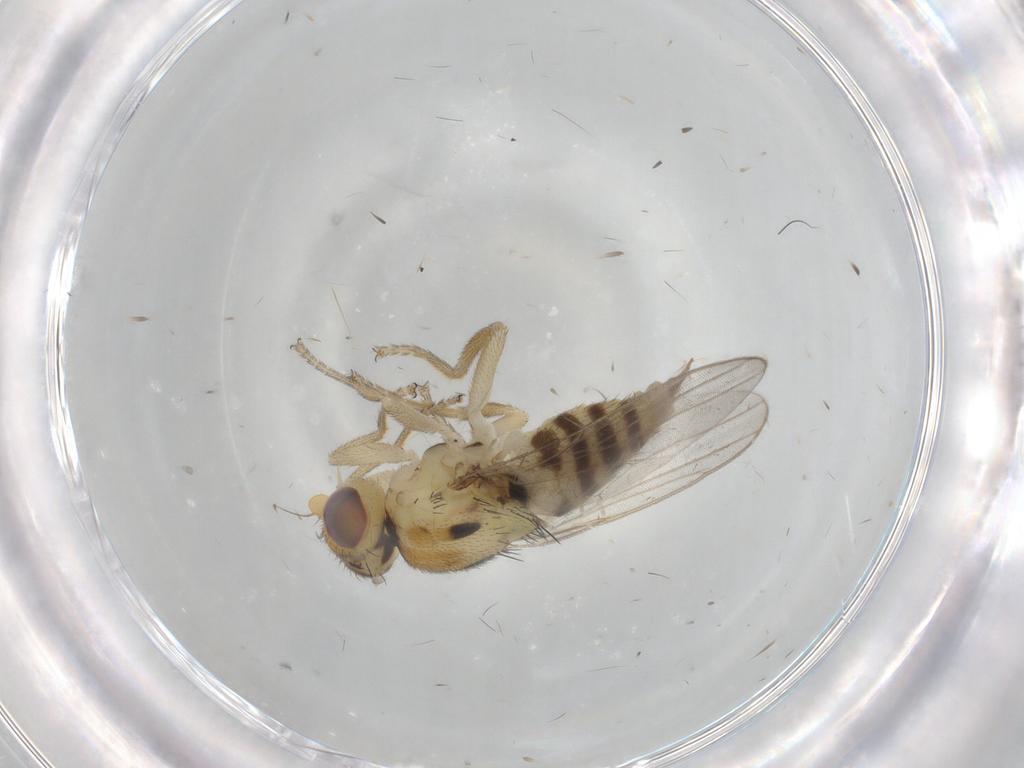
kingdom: Animalia
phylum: Arthropoda
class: Insecta
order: Diptera
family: Chloropidae
